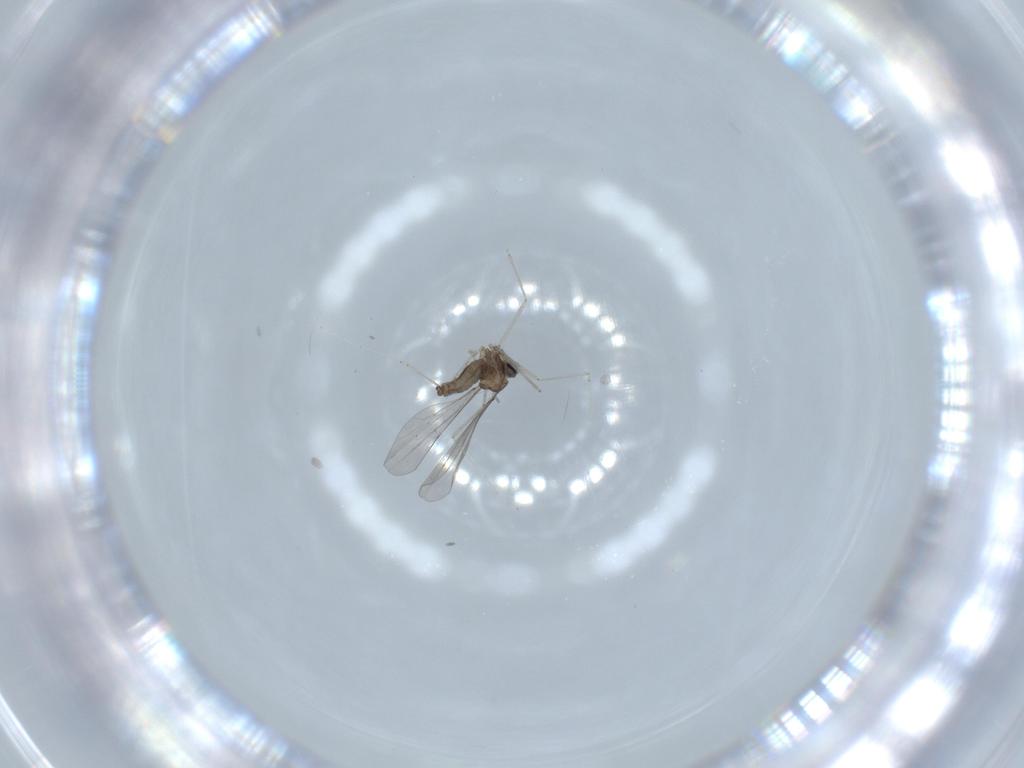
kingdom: Animalia
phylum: Arthropoda
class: Insecta
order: Diptera
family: Cecidomyiidae
